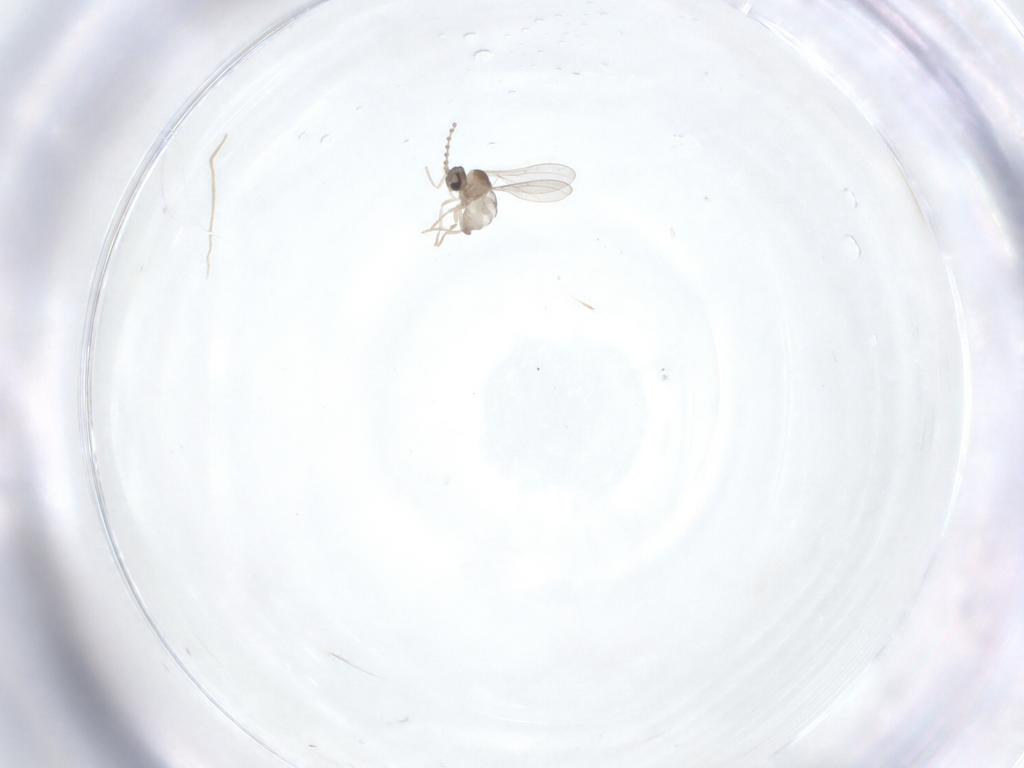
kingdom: Animalia
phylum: Arthropoda
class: Insecta
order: Diptera
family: Cecidomyiidae
